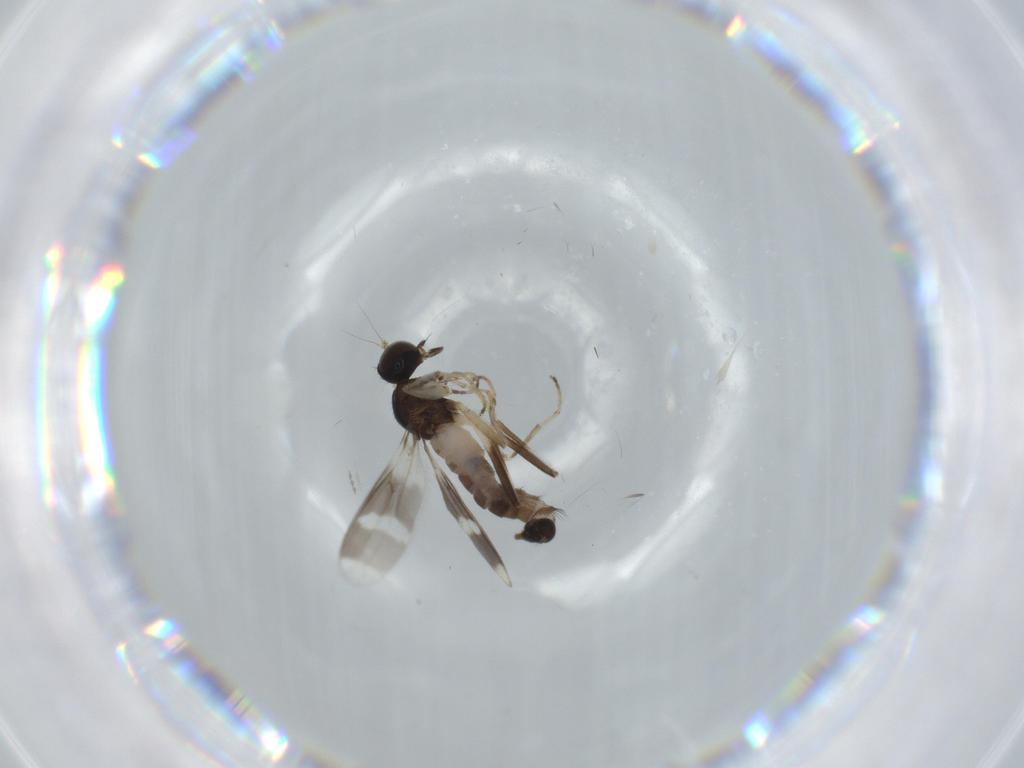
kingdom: Animalia
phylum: Arthropoda
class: Insecta
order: Diptera
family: Hybotidae
